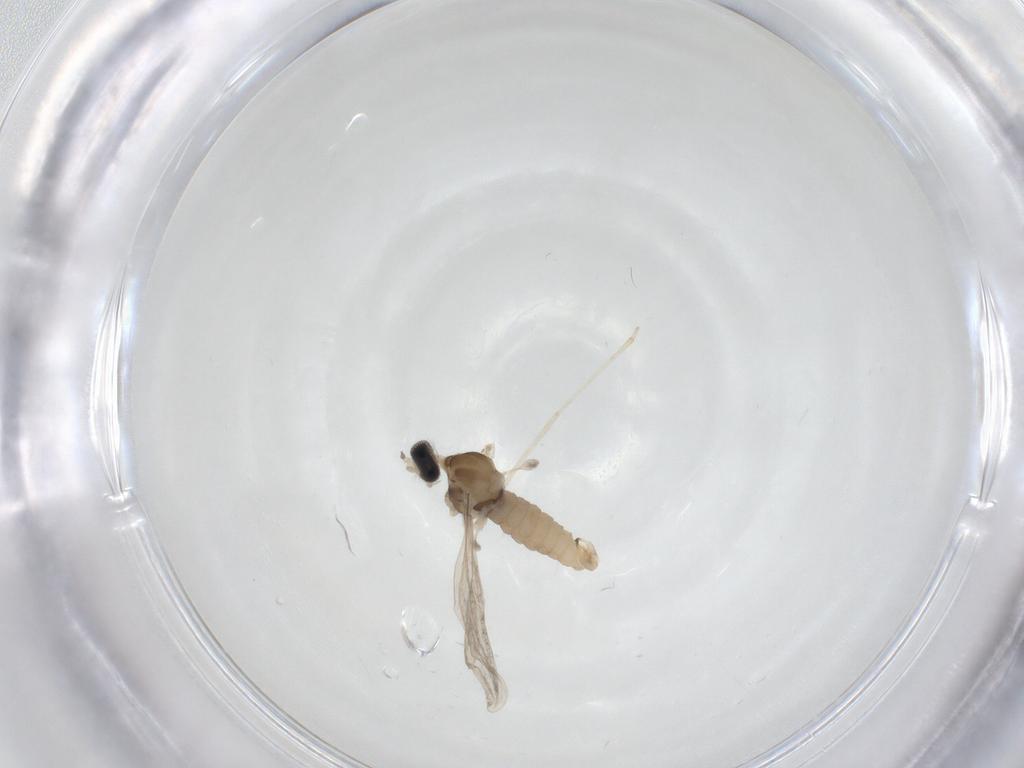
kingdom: Animalia
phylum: Arthropoda
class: Insecta
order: Diptera
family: Cecidomyiidae
